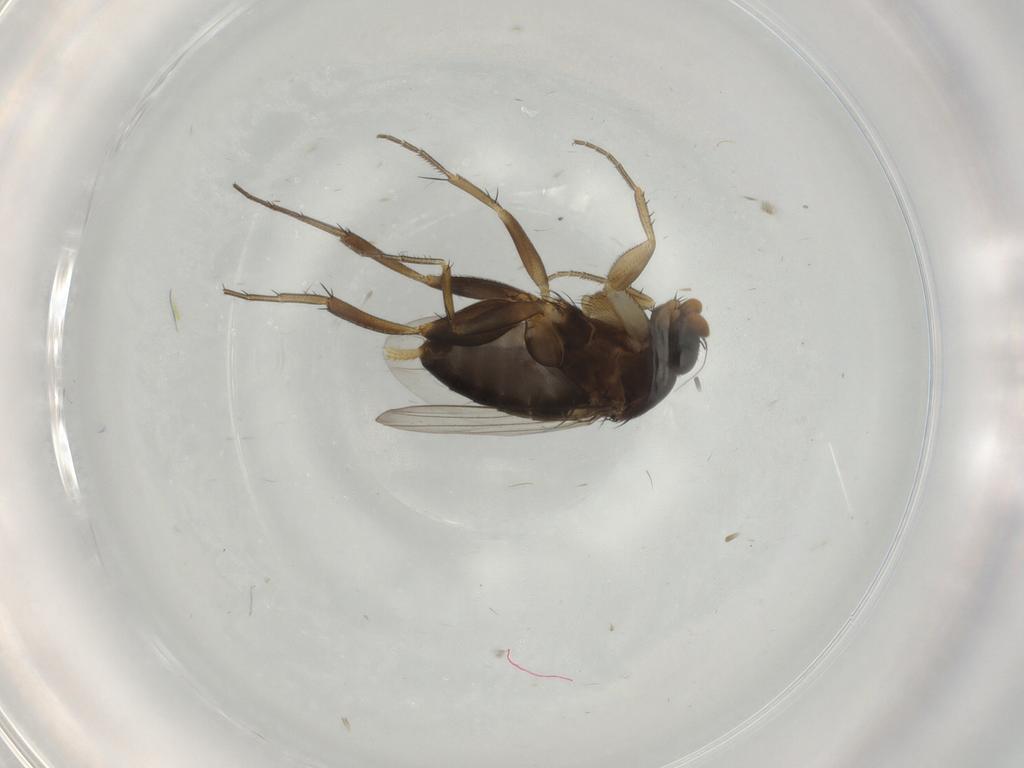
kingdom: Animalia
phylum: Arthropoda
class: Insecta
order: Diptera
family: Phoridae
